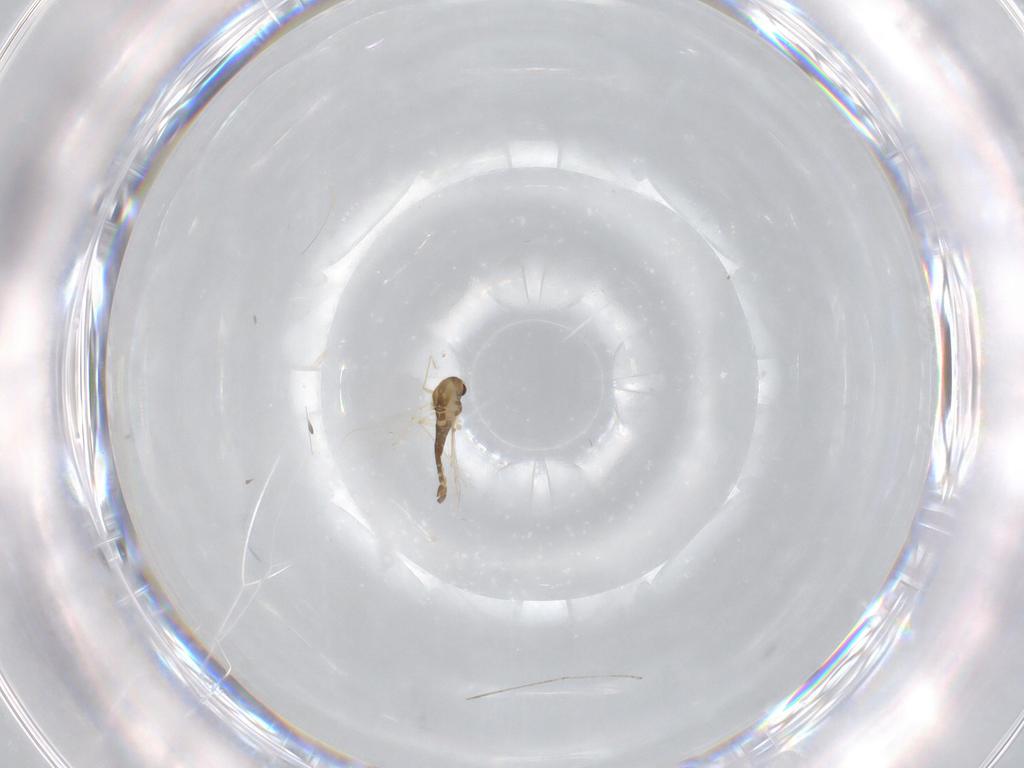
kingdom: Animalia
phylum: Arthropoda
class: Insecta
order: Diptera
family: Chironomidae
